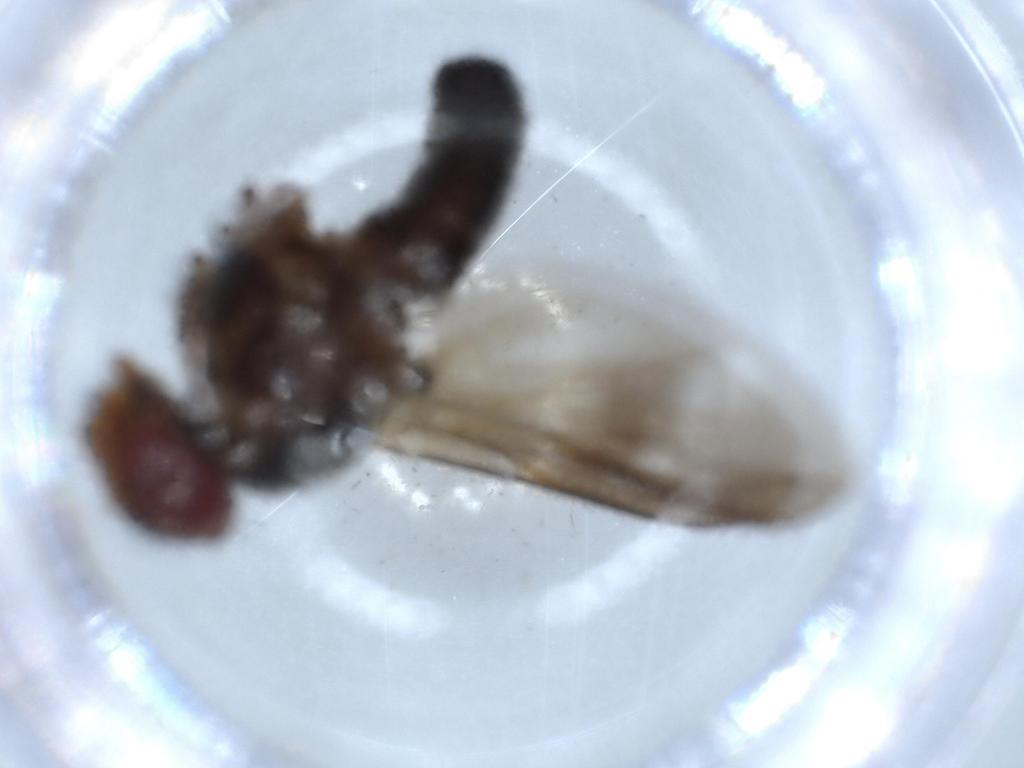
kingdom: Animalia
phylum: Arthropoda
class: Insecta
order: Diptera
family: Calliphoridae
